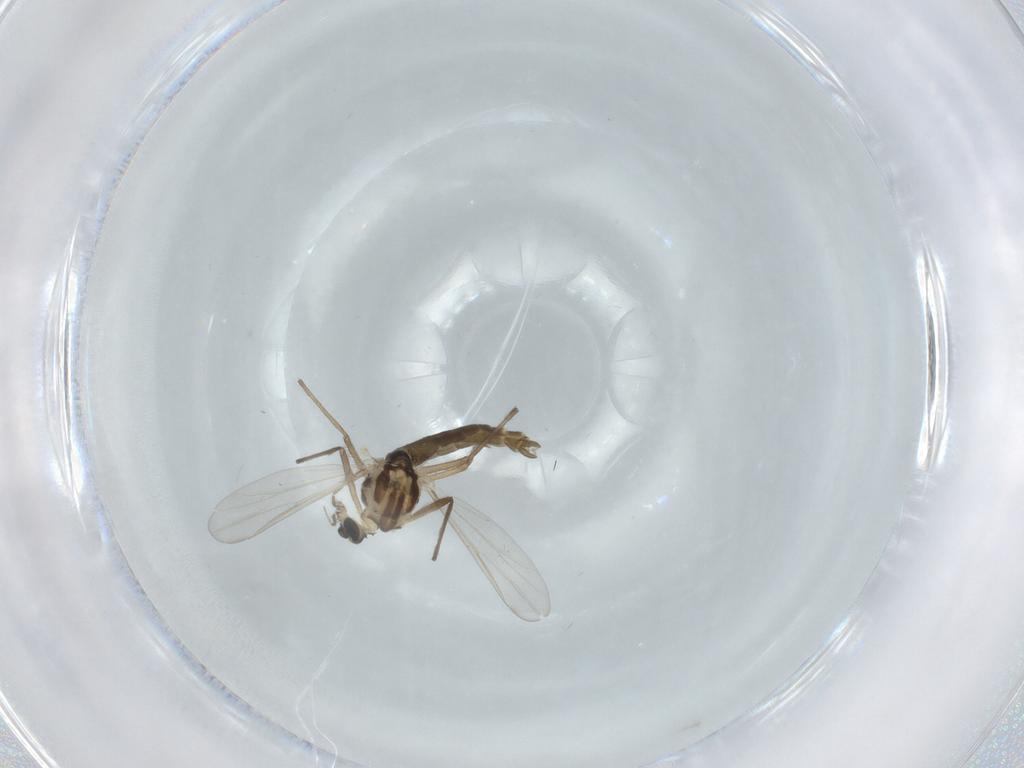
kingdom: Animalia
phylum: Arthropoda
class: Insecta
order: Diptera
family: Chironomidae
